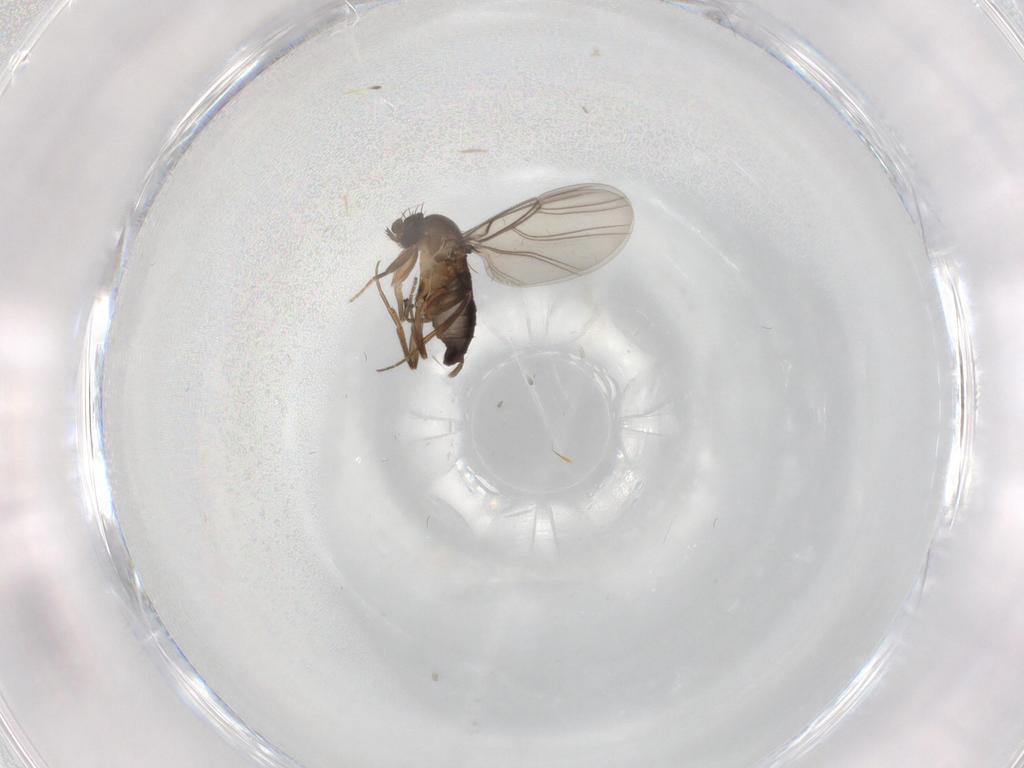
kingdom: Animalia
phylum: Arthropoda
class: Insecta
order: Diptera
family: Phoridae
